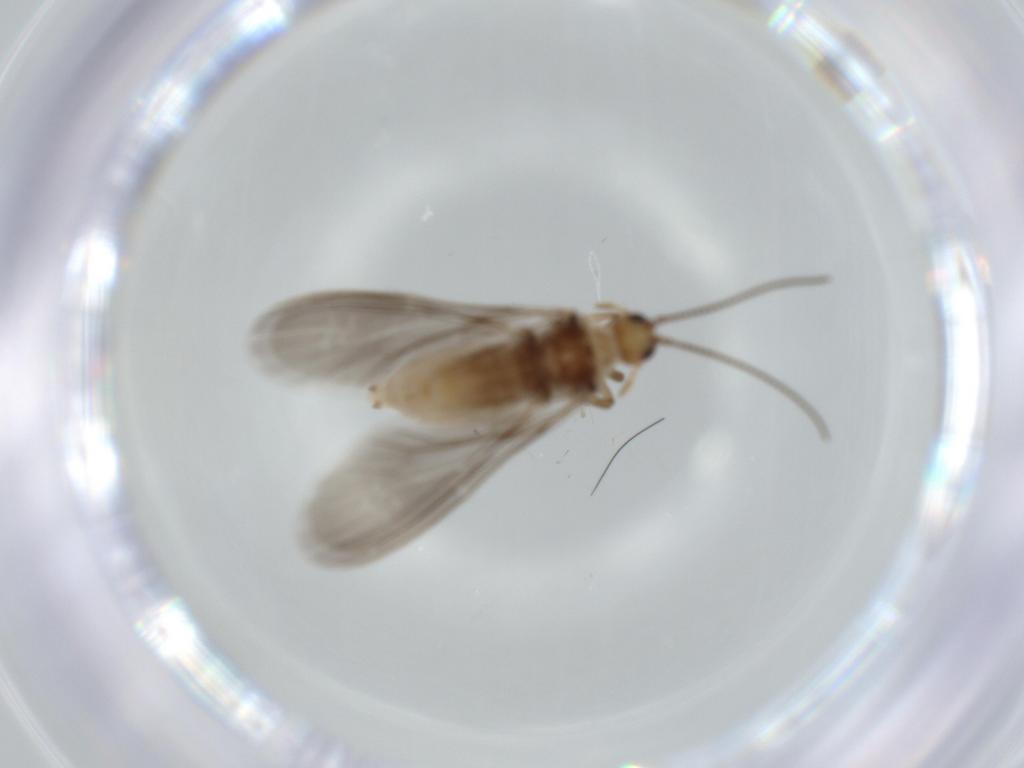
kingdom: Animalia
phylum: Arthropoda
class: Insecta
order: Neuroptera
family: Coniopterygidae
